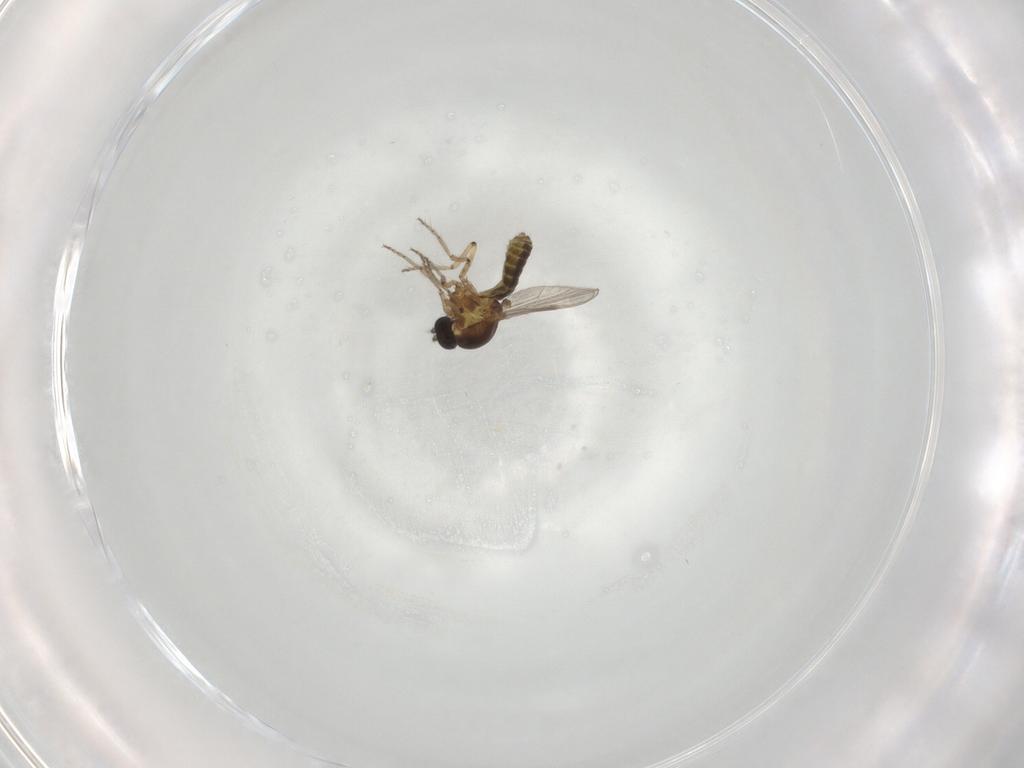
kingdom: Animalia
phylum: Arthropoda
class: Insecta
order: Diptera
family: Ceratopogonidae
